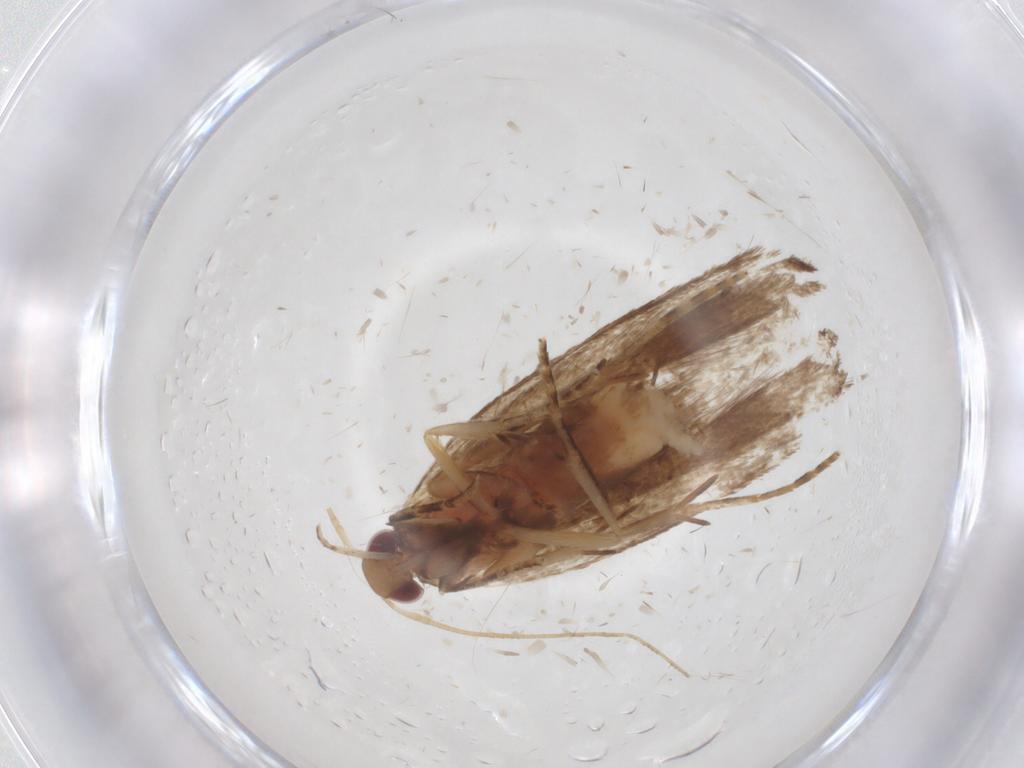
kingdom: Animalia
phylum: Arthropoda
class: Insecta
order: Lepidoptera
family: Gelechiidae
